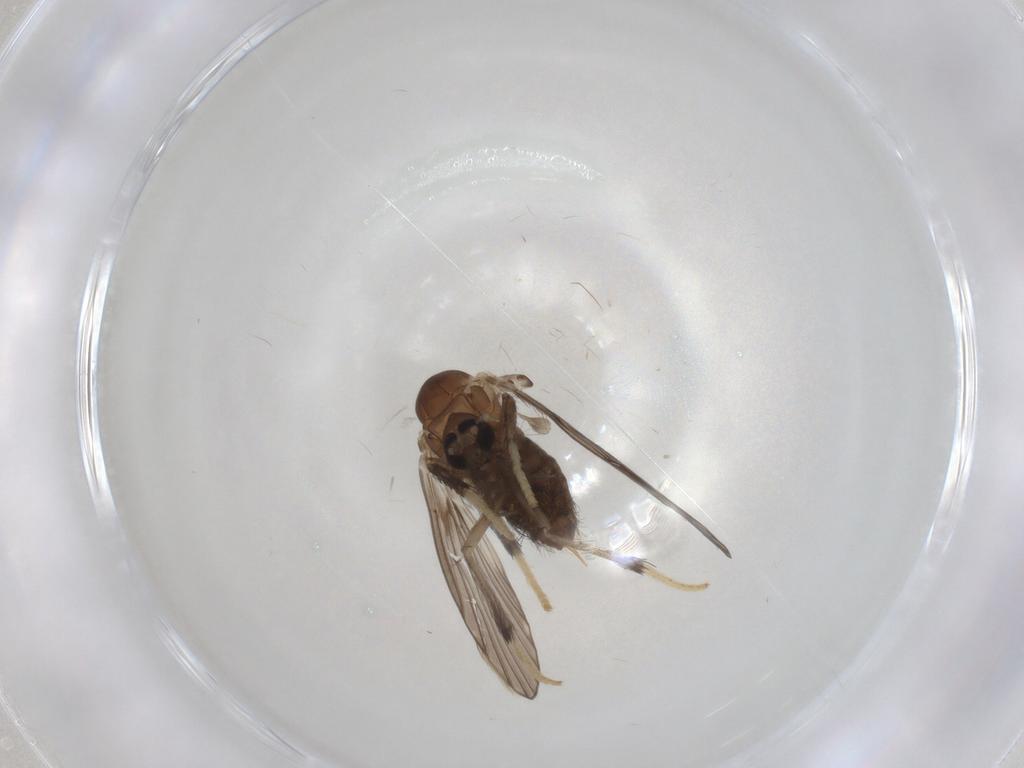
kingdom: Animalia
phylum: Arthropoda
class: Insecta
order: Diptera
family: Psychodidae
